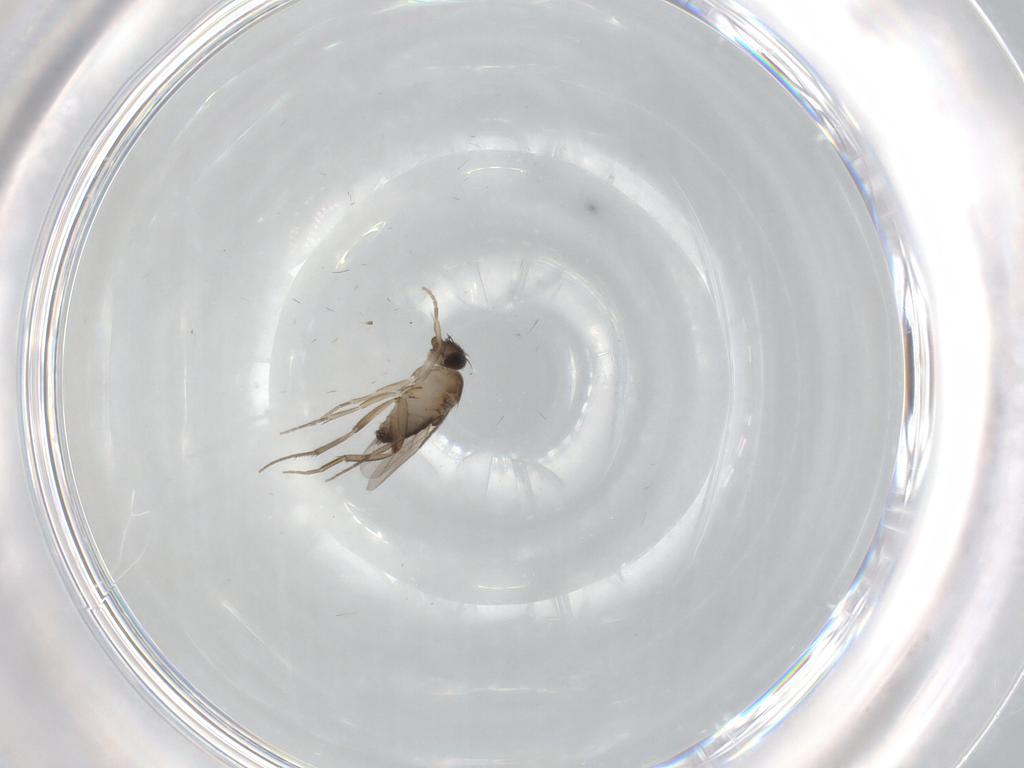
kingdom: Animalia
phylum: Arthropoda
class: Insecta
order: Diptera
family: Phoridae
